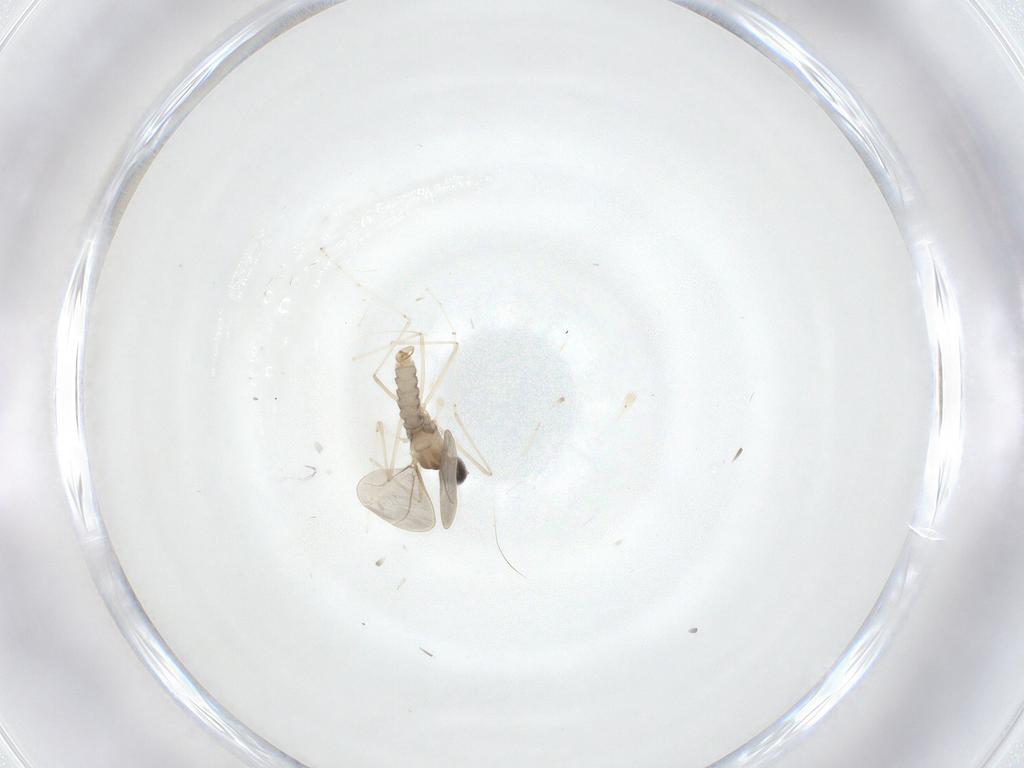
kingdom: Animalia
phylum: Arthropoda
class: Insecta
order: Diptera
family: Cecidomyiidae
